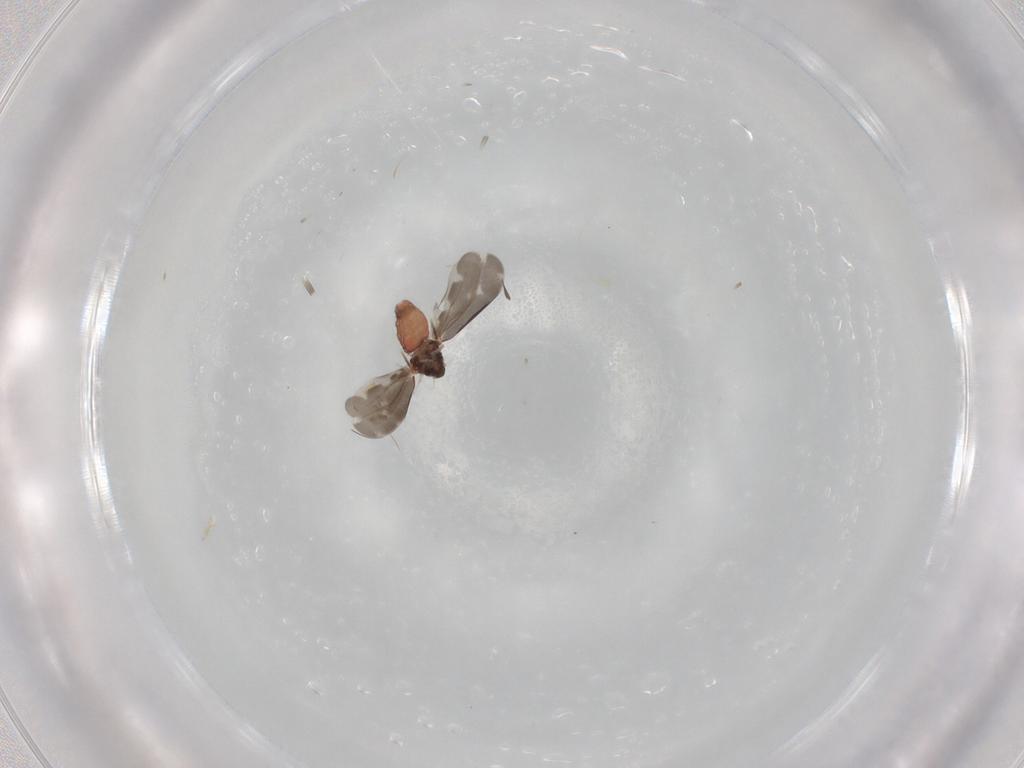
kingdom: Animalia
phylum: Arthropoda
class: Insecta
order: Hemiptera
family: Aleyrodidae
